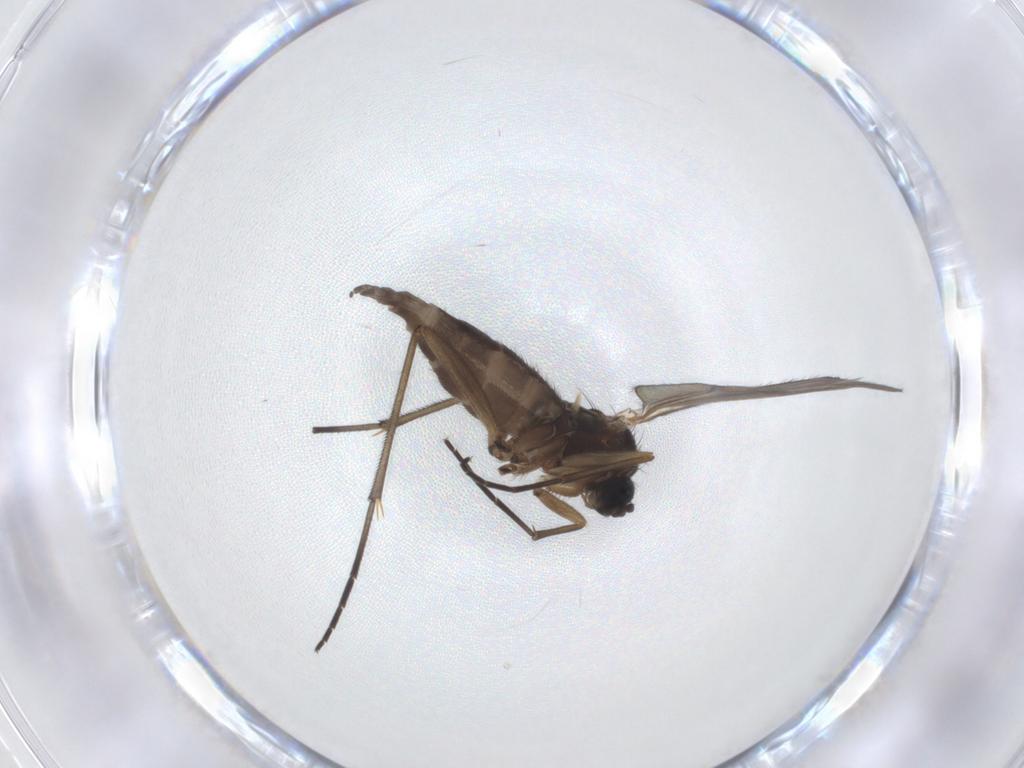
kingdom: Animalia
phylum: Arthropoda
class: Insecta
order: Diptera
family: Sciaridae
